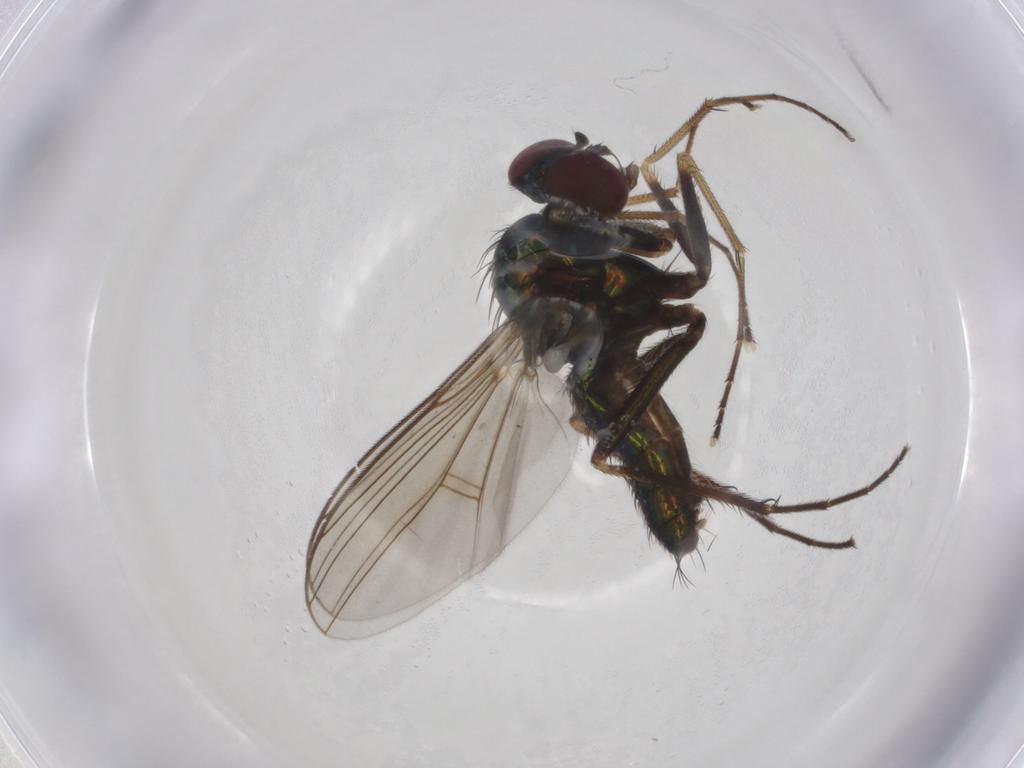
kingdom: Animalia
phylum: Arthropoda
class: Insecta
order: Diptera
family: Dolichopodidae
